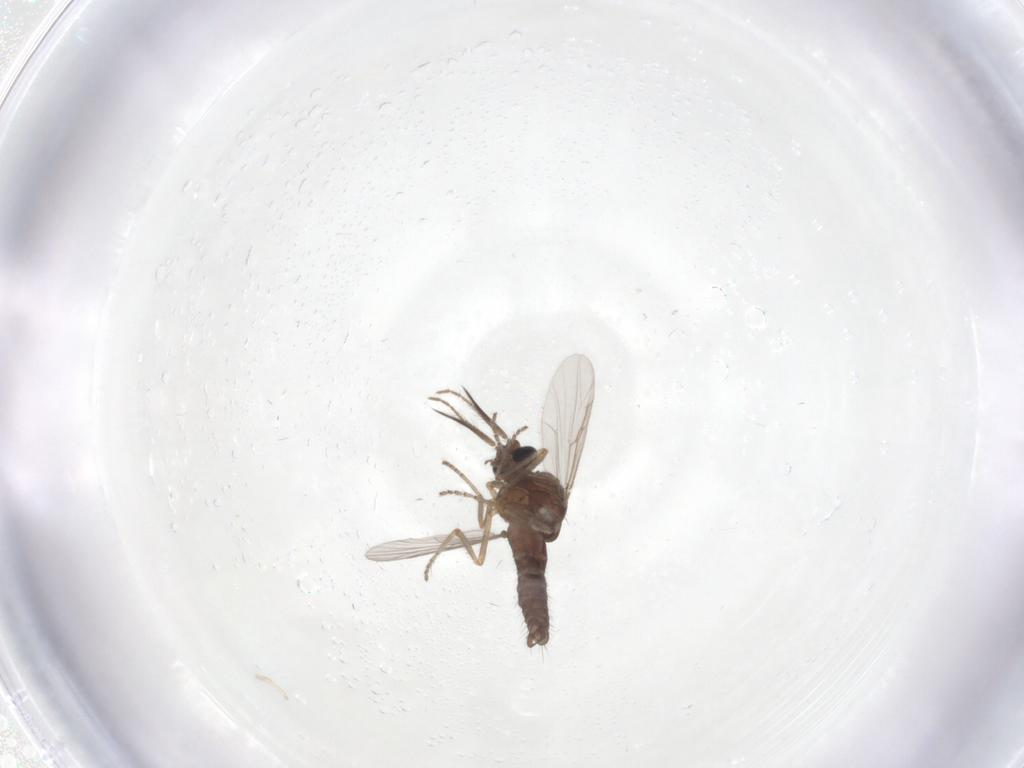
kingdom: Animalia
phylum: Arthropoda
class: Insecta
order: Diptera
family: Ceratopogonidae
